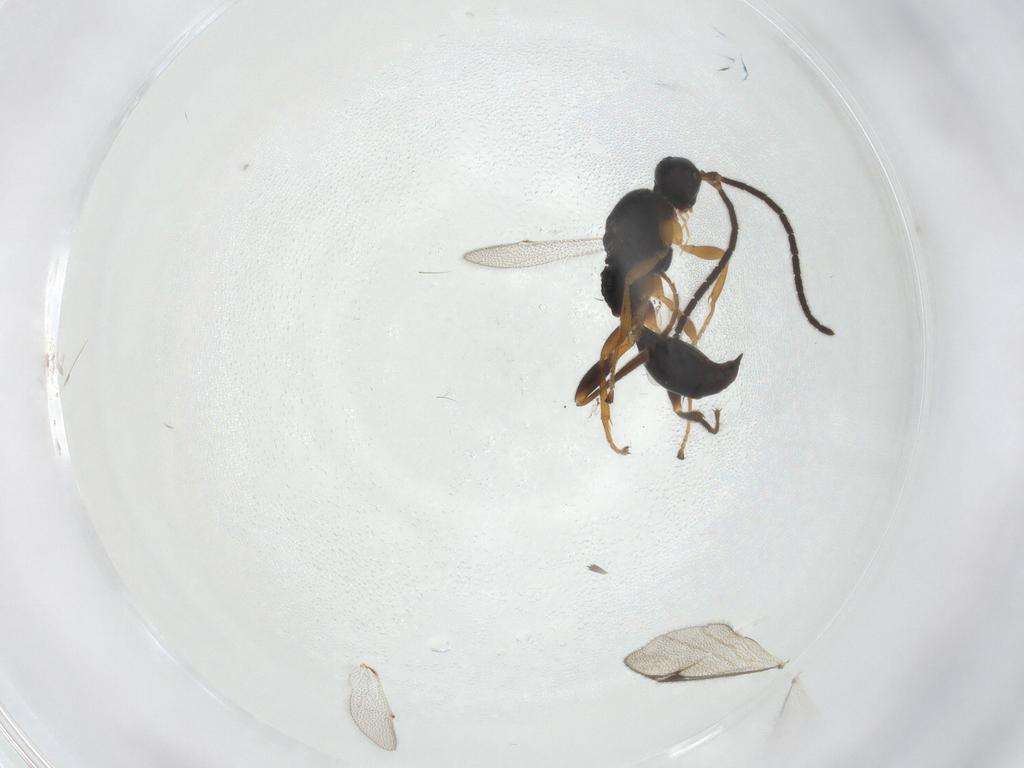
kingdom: Animalia
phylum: Arthropoda
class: Insecta
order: Hymenoptera
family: Proctotrupidae
